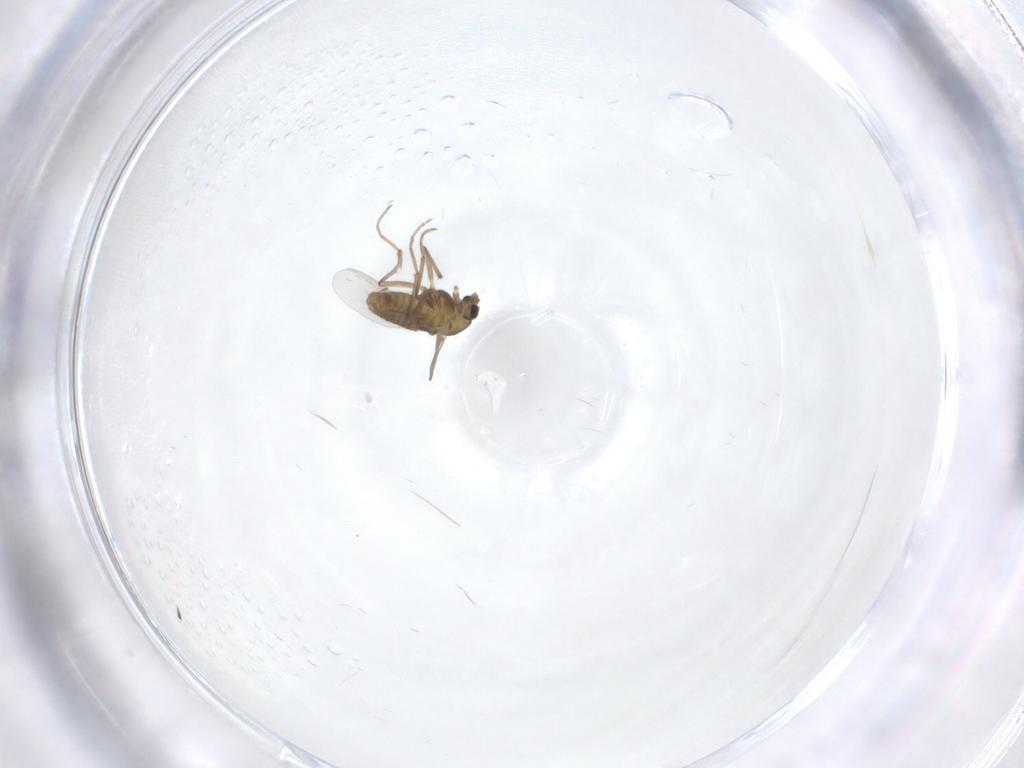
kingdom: Animalia
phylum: Arthropoda
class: Insecta
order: Diptera
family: Chironomidae
